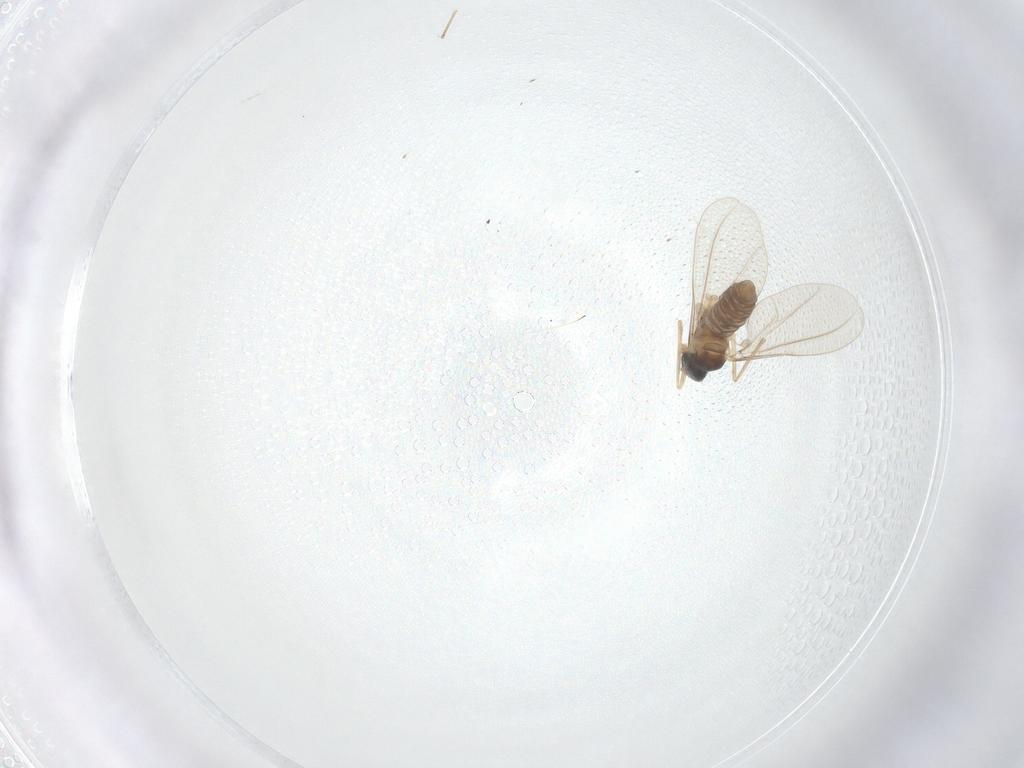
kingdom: Animalia
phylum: Arthropoda
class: Insecta
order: Diptera
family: Cecidomyiidae
